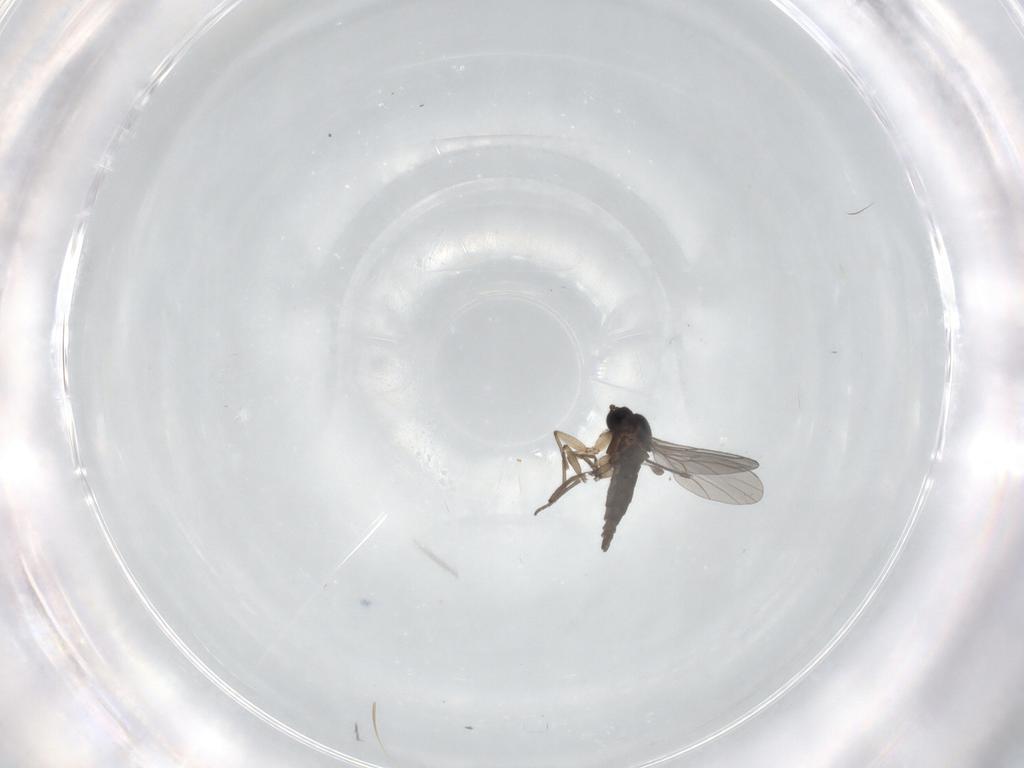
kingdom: Animalia
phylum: Arthropoda
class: Insecta
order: Diptera
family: Sciaridae
